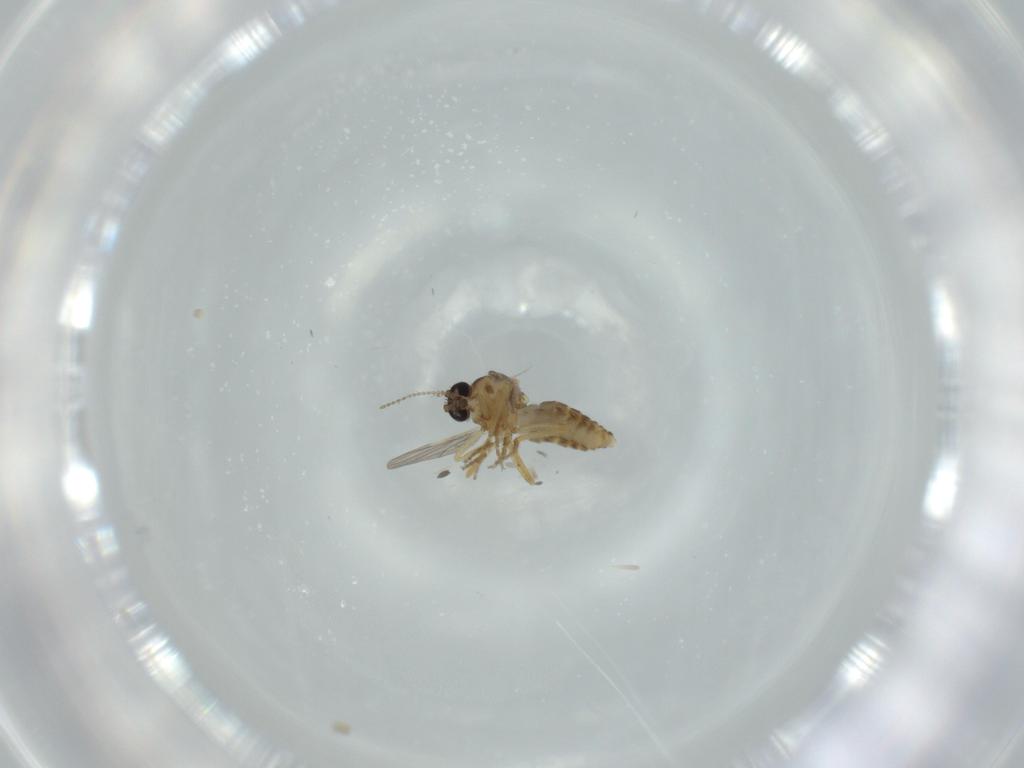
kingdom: Animalia
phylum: Arthropoda
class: Insecta
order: Diptera
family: Ceratopogonidae
